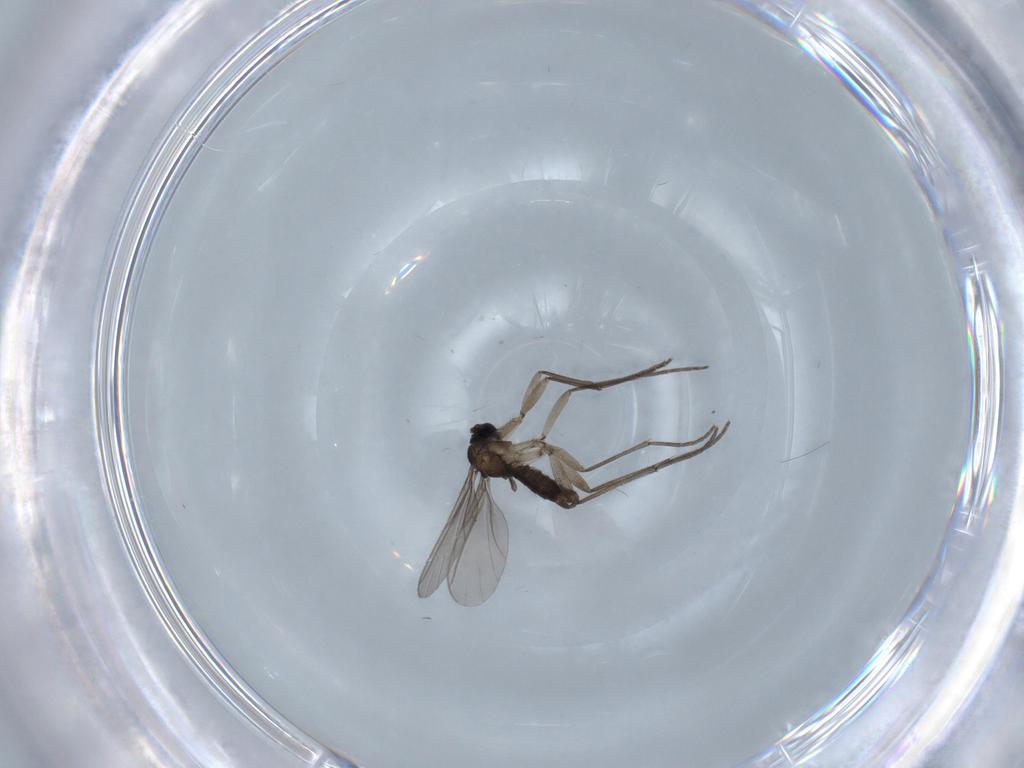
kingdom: Animalia
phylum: Arthropoda
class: Insecta
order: Diptera
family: Sciaridae
